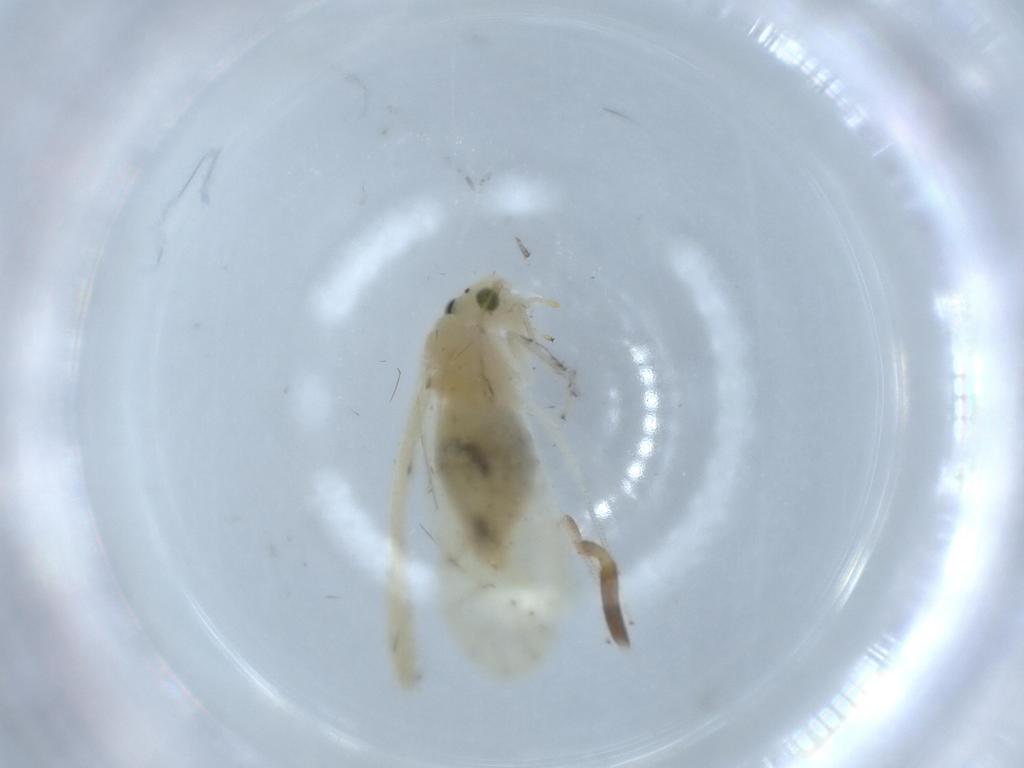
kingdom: Animalia
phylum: Arthropoda
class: Insecta
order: Psocodea
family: Caeciliusidae
